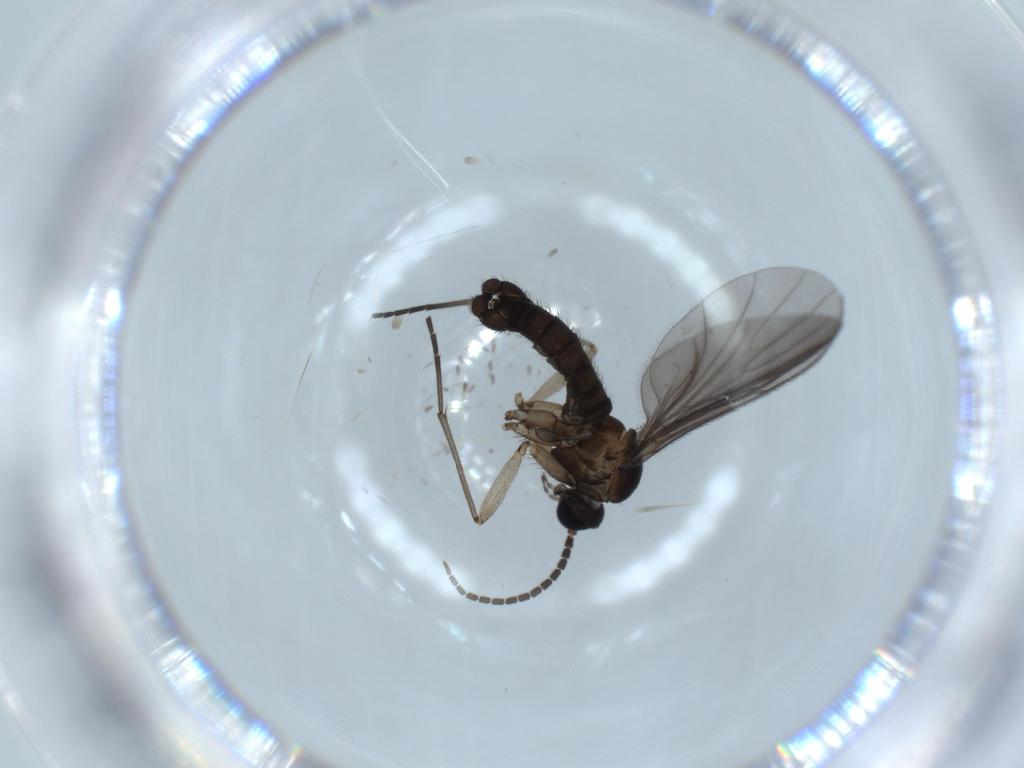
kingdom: Animalia
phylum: Arthropoda
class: Insecta
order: Diptera
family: Sciaridae
